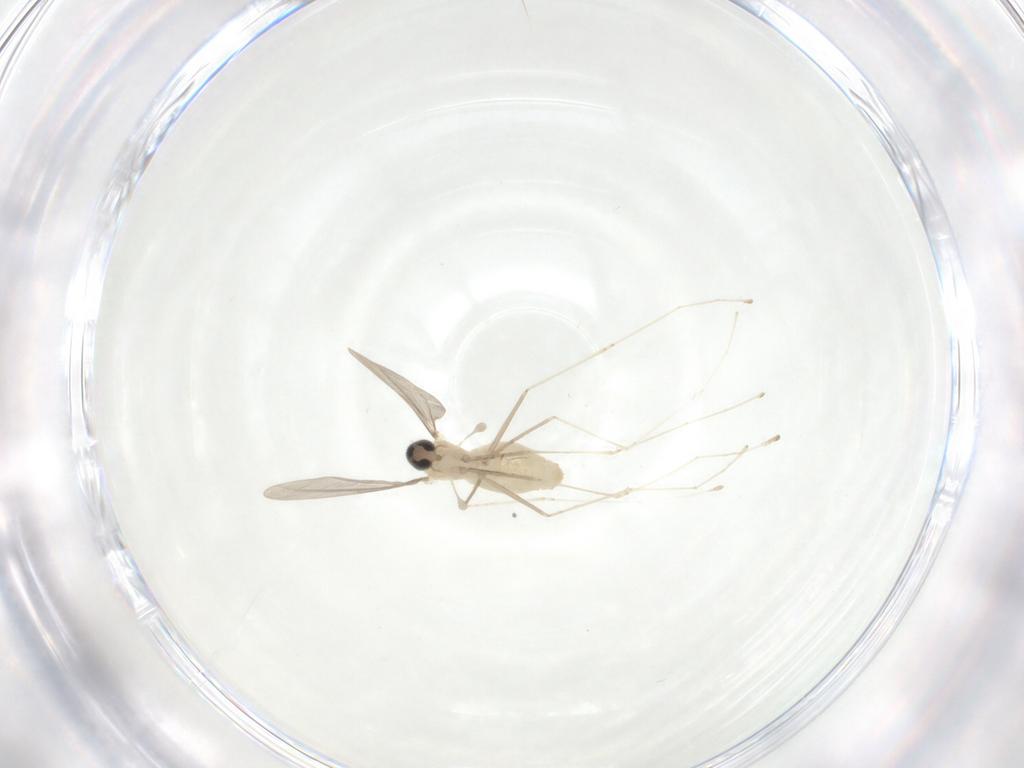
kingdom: Animalia
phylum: Arthropoda
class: Insecta
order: Diptera
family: Cecidomyiidae
